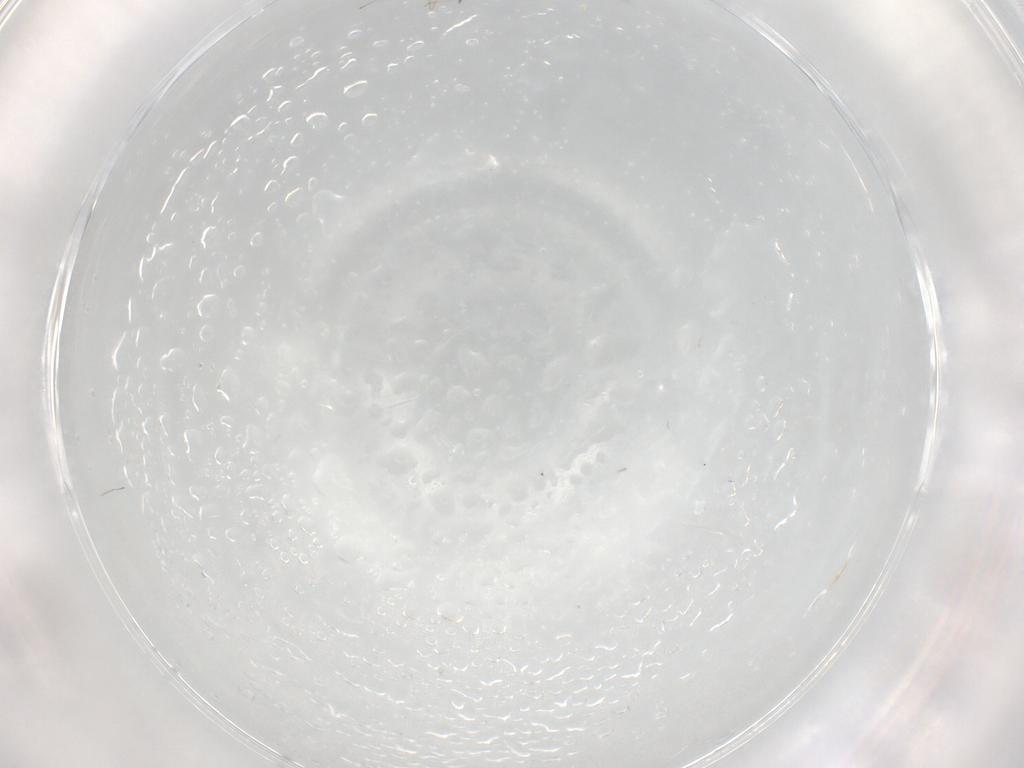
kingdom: Animalia
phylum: Arthropoda
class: Insecta
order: Diptera
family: Cecidomyiidae
